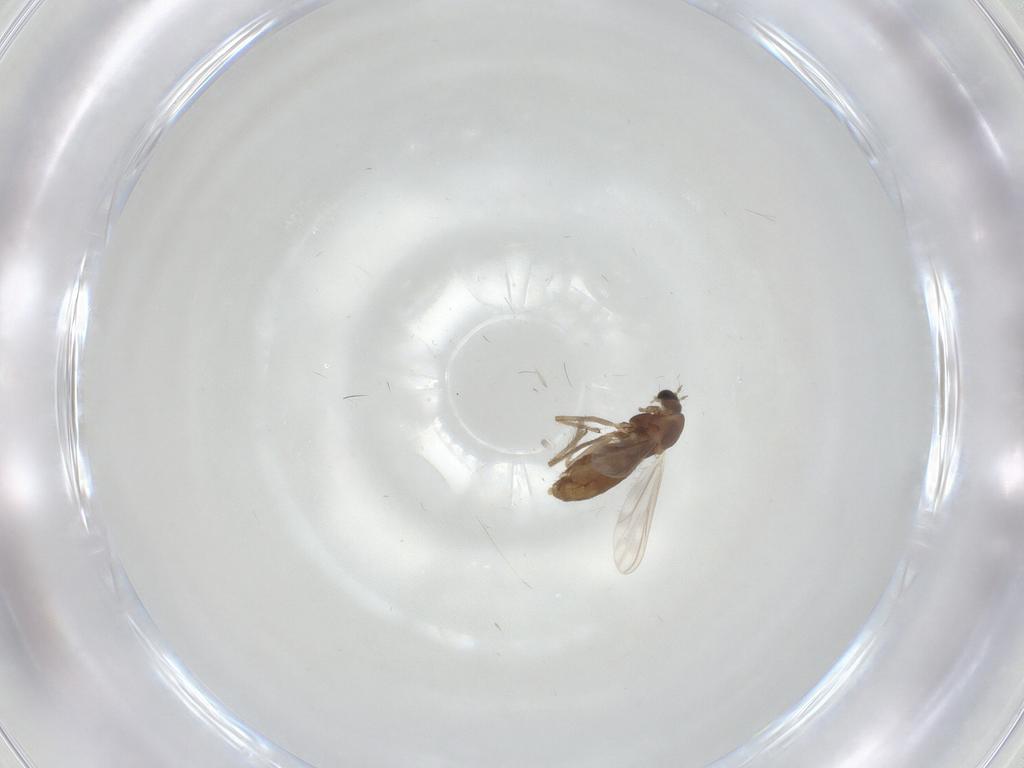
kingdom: Animalia
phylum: Arthropoda
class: Insecta
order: Diptera
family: Chironomidae
